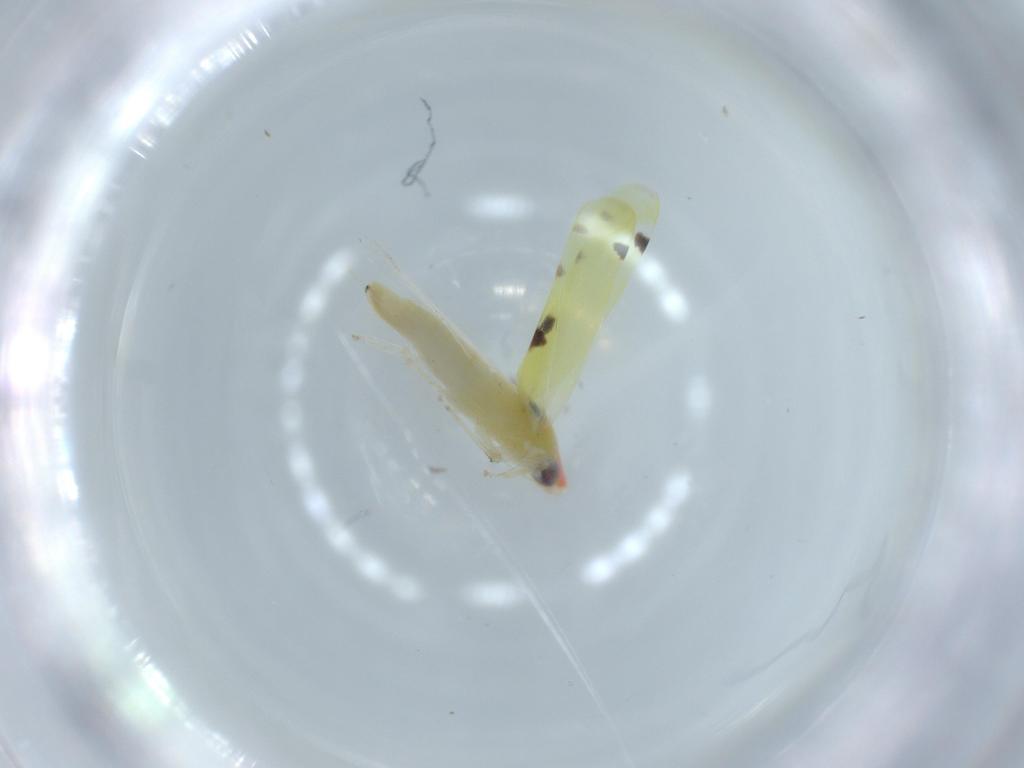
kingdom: Animalia
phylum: Arthropoda
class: Insecta
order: Hemiptera
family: Cicadellidae
